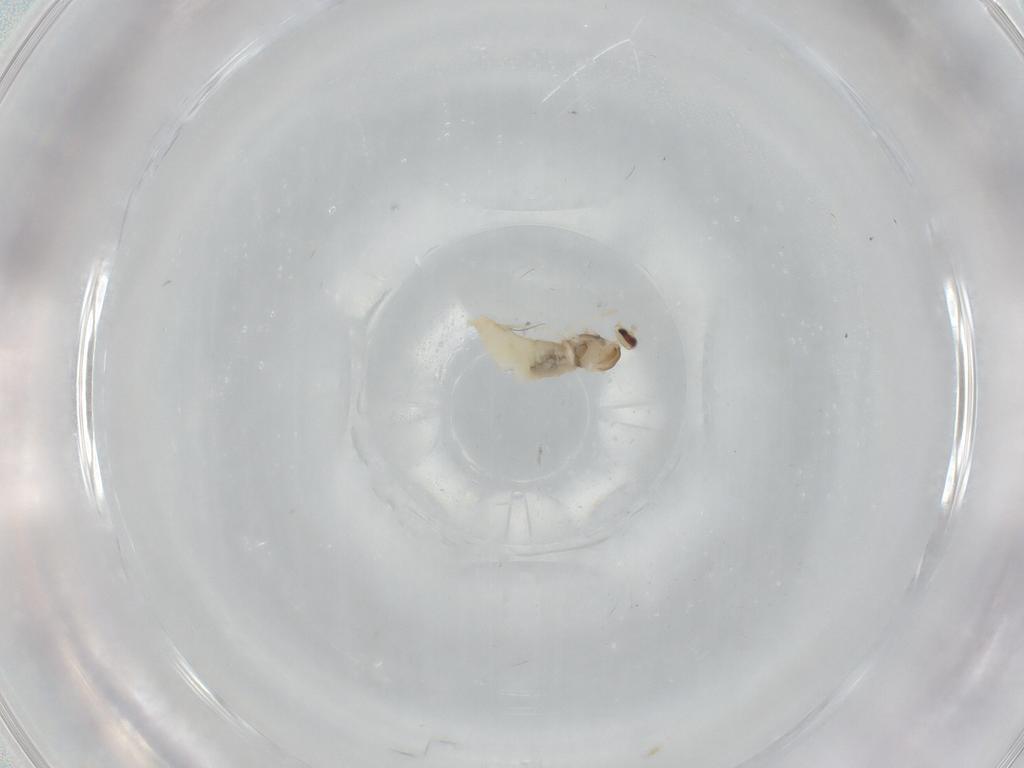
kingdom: Animalia
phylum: Arthropoda
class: Insecta
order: Diptera
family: Cecidomyiidae
